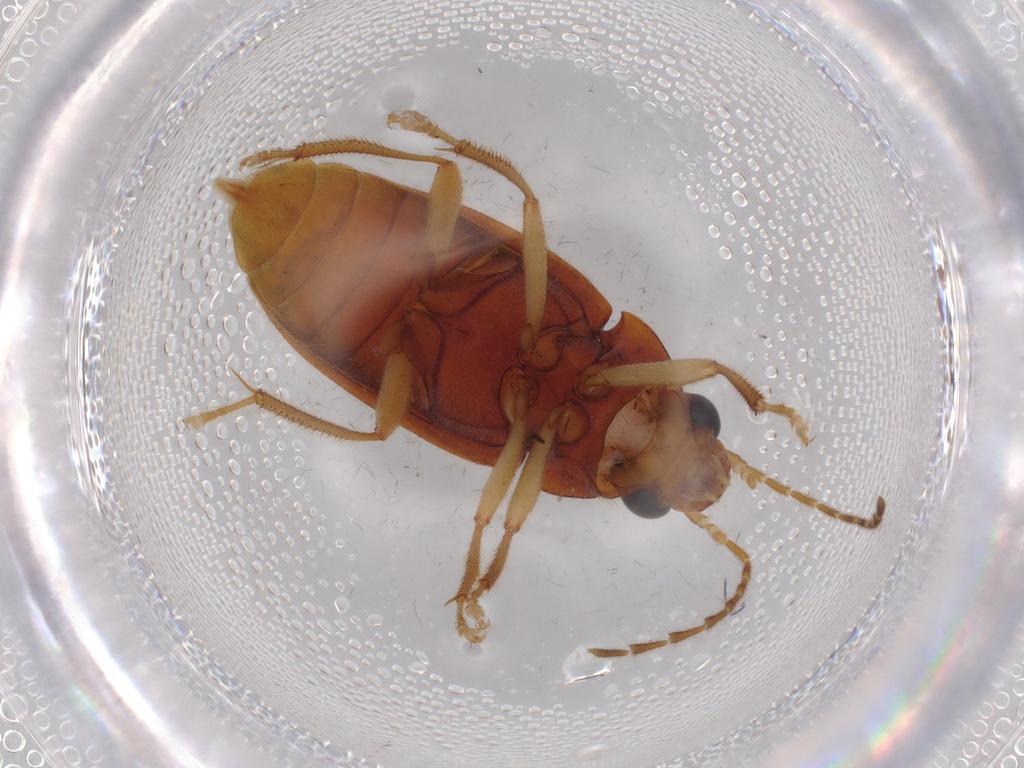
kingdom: Animalia
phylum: Arthropoda
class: Insecta
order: Coleoptera
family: Ptilodactylidae
